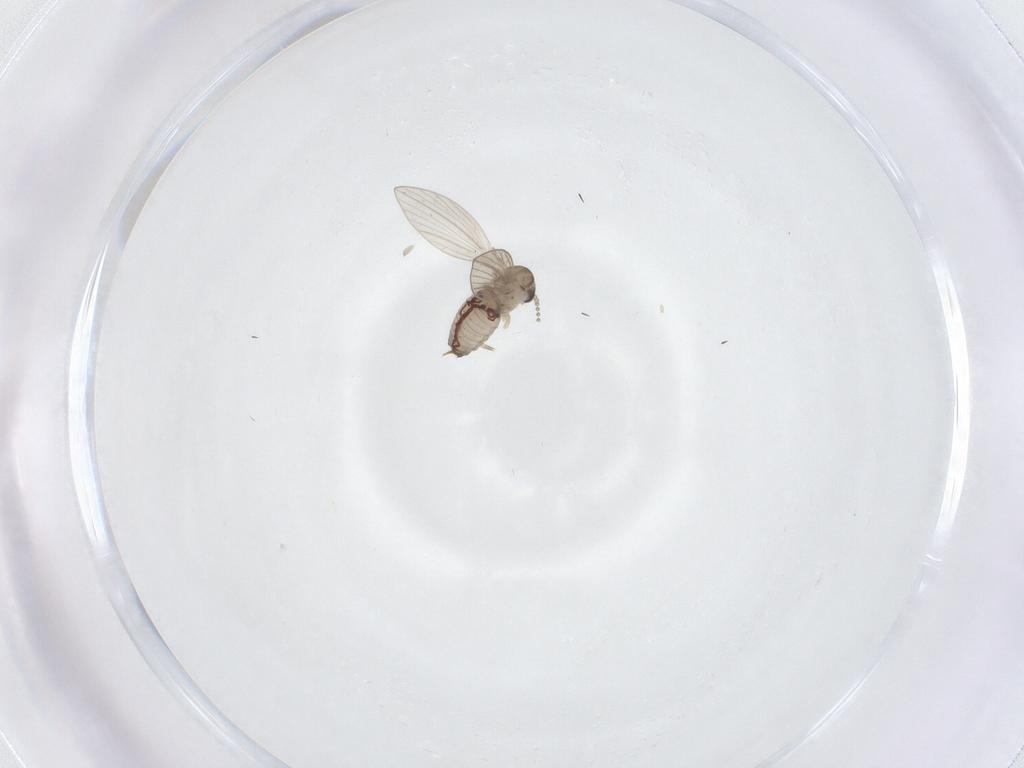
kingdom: Animalia
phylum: Arthropoda
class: Insecta
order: Diptera
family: Psychodidae
